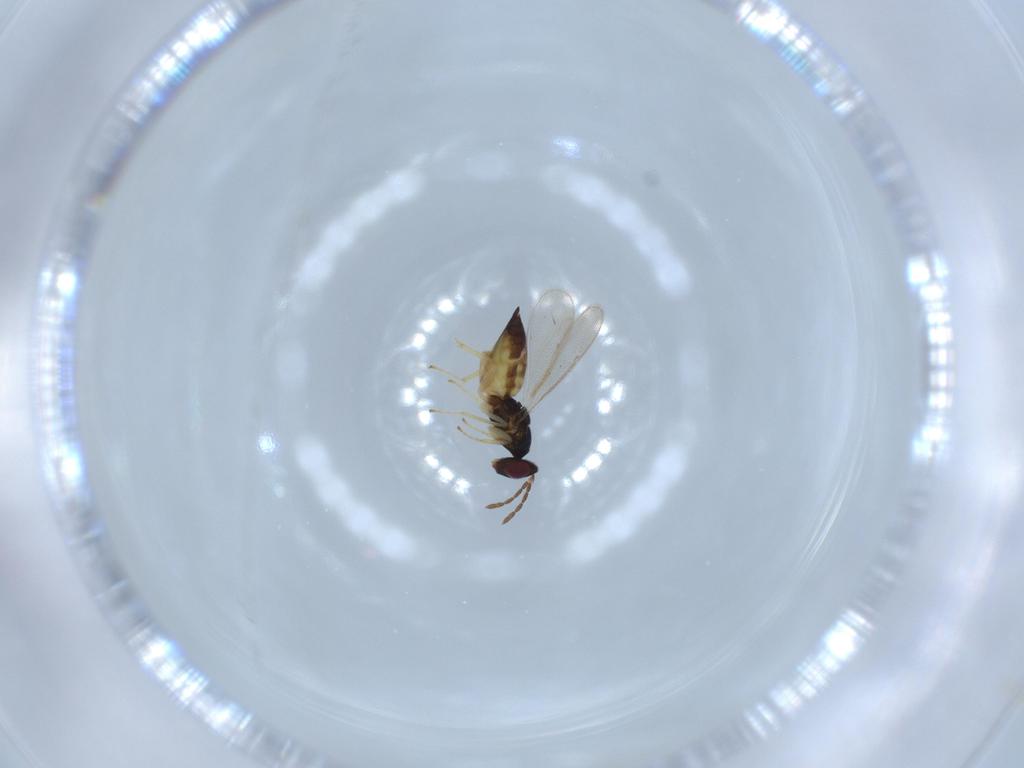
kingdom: Animalia
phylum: Arthropoda
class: Insecta
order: Hymenoptera
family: Eulophidae
